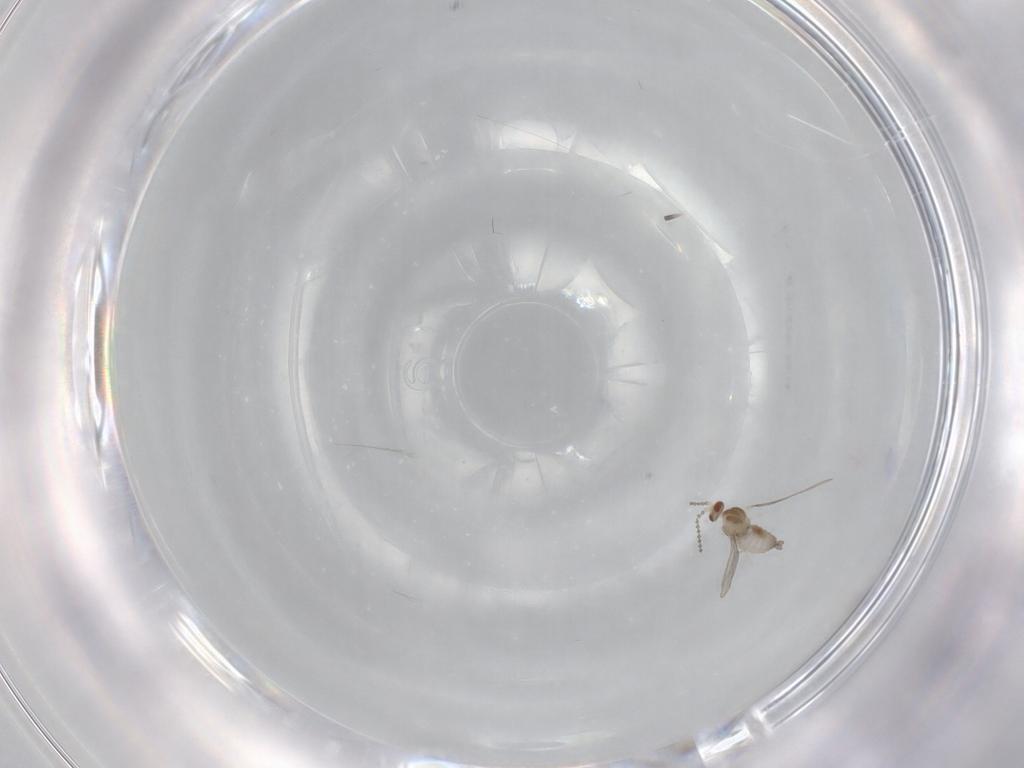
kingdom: Animalia
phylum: Arthropoda
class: Insecta
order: Diptera
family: Cecidomyiidae
